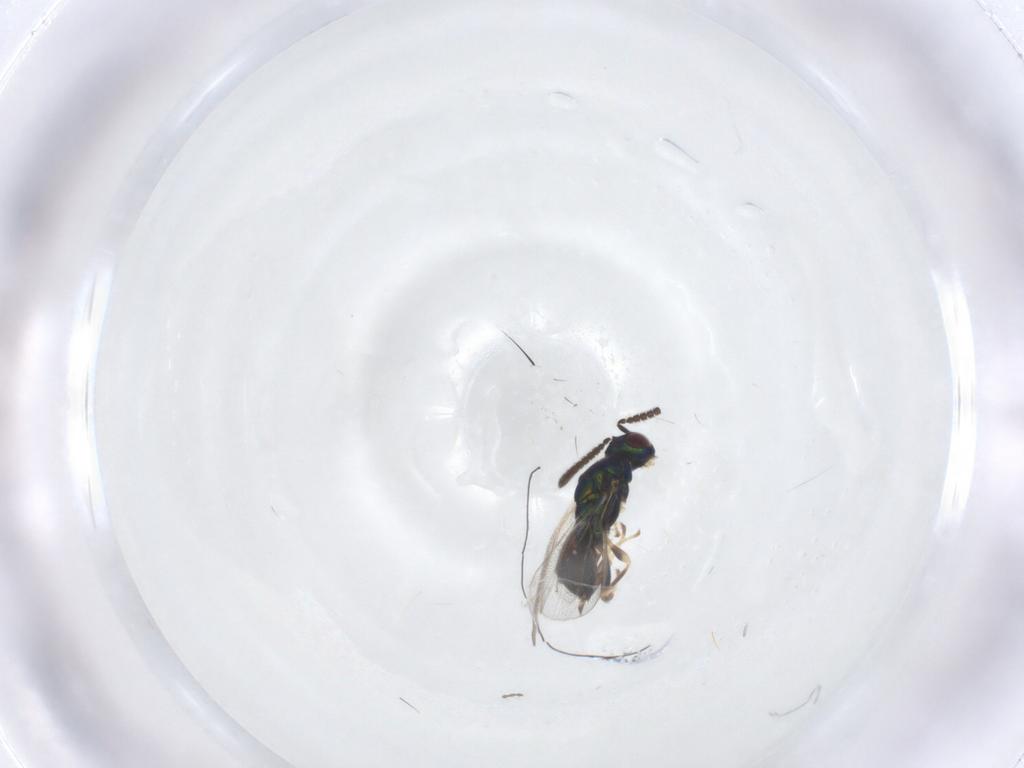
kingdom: Animalia
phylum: Arthropoda
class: Insecta
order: Hymenoptera
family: Torymidae
